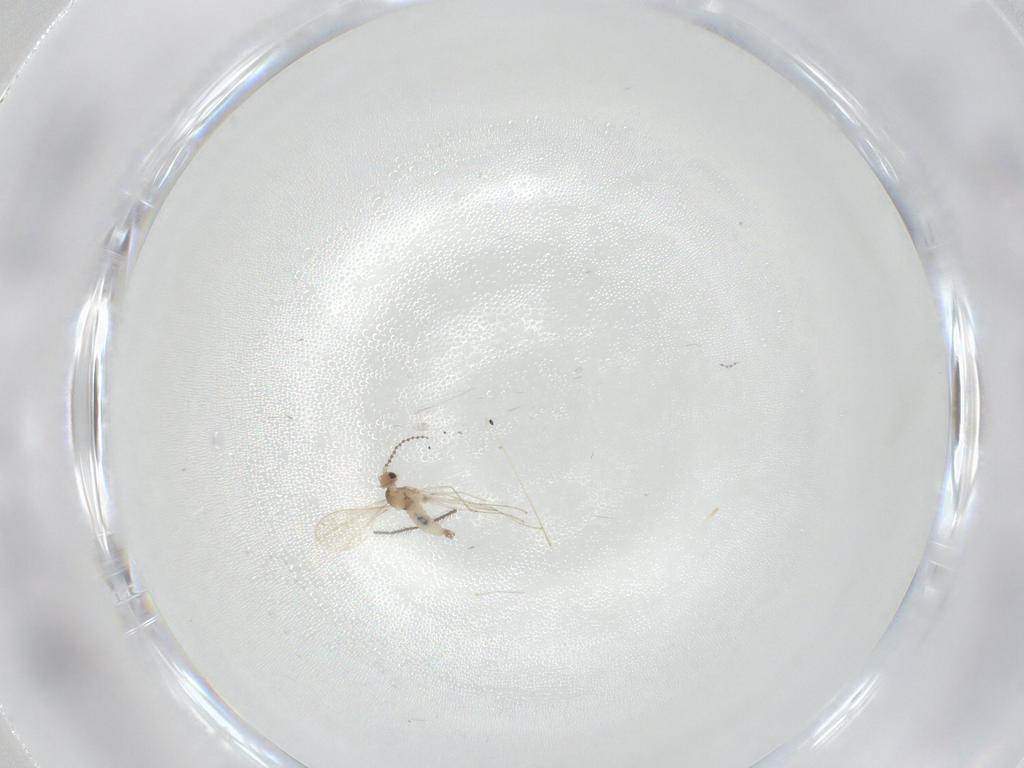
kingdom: Animalia
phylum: Arthropoda
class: Insecta
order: Diptera
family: Cecidomyiidae
